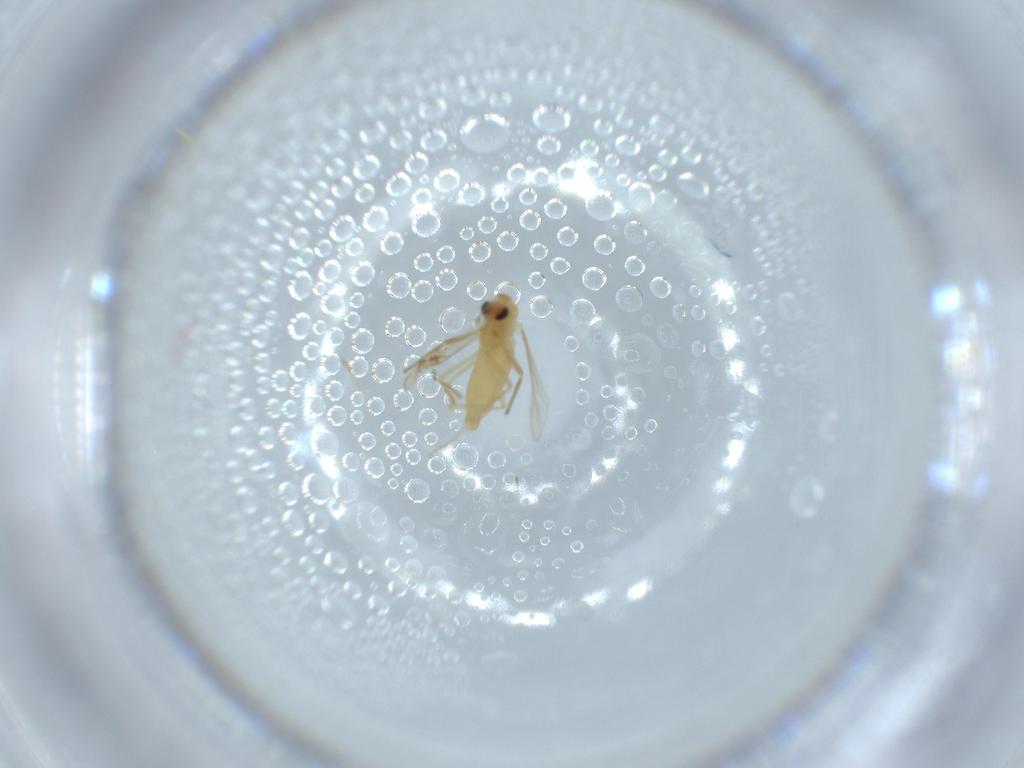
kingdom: Animalia
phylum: Arthropoda
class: Insecta
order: Diptera
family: Chironomidae
